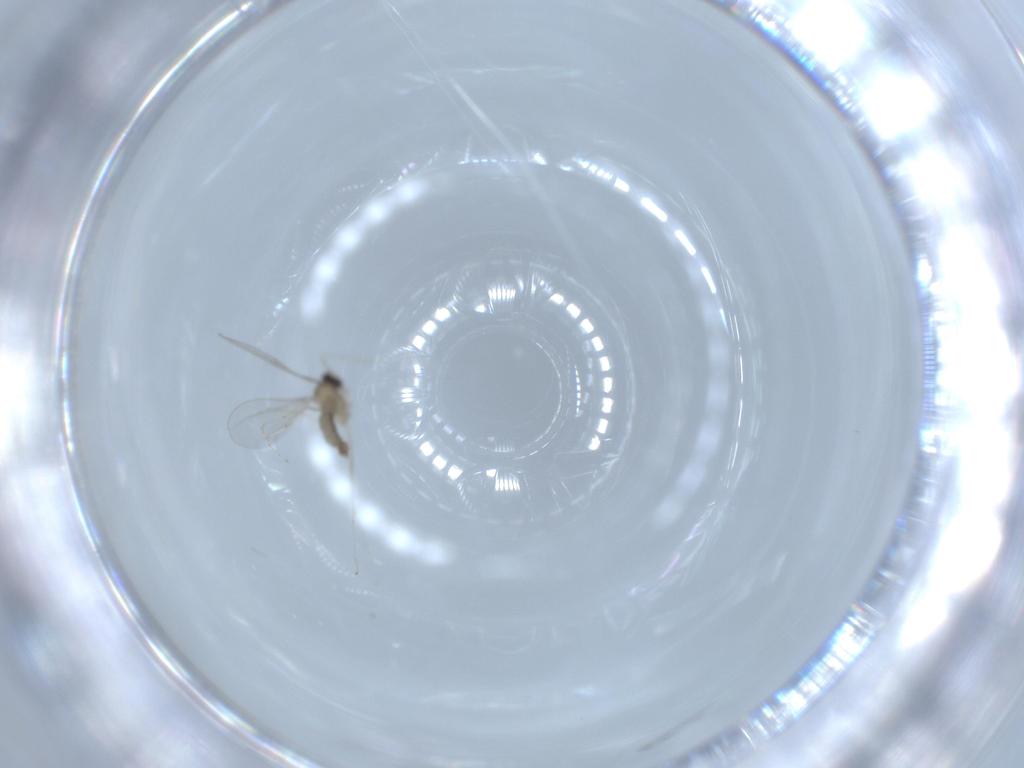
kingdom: Animalia
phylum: Arthropoda
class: Insecta
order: Diptera
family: Cecidomyiidae
